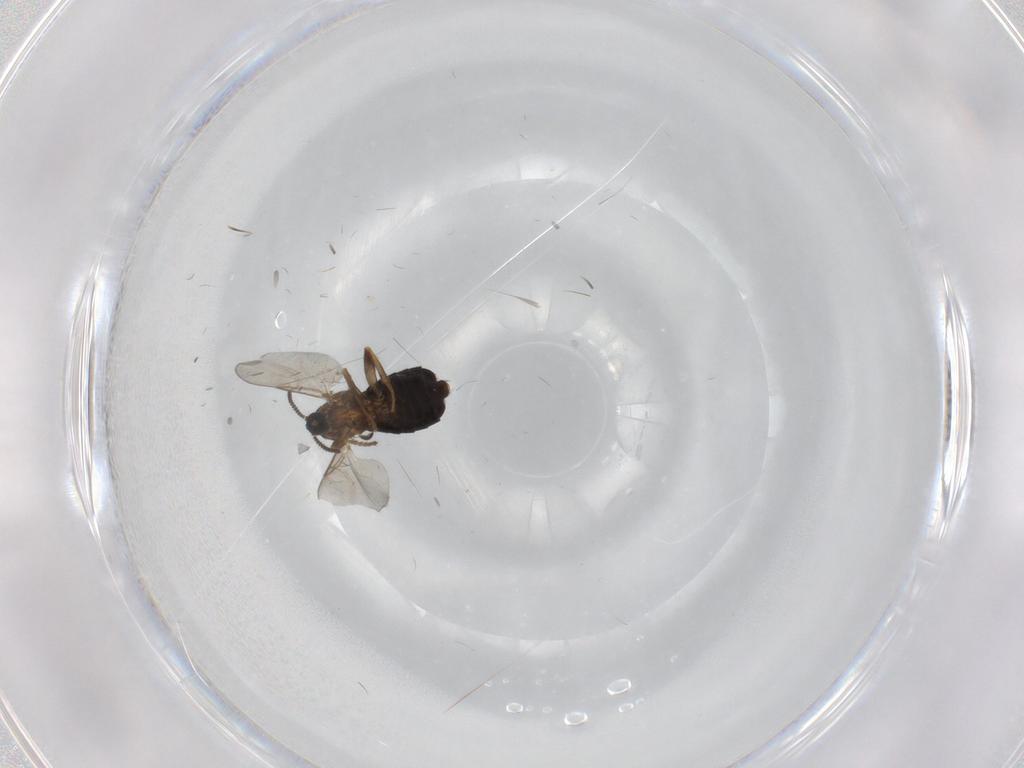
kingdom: Animalia
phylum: Arthropoda
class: Insecta
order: Diptera
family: Scatopsidae
